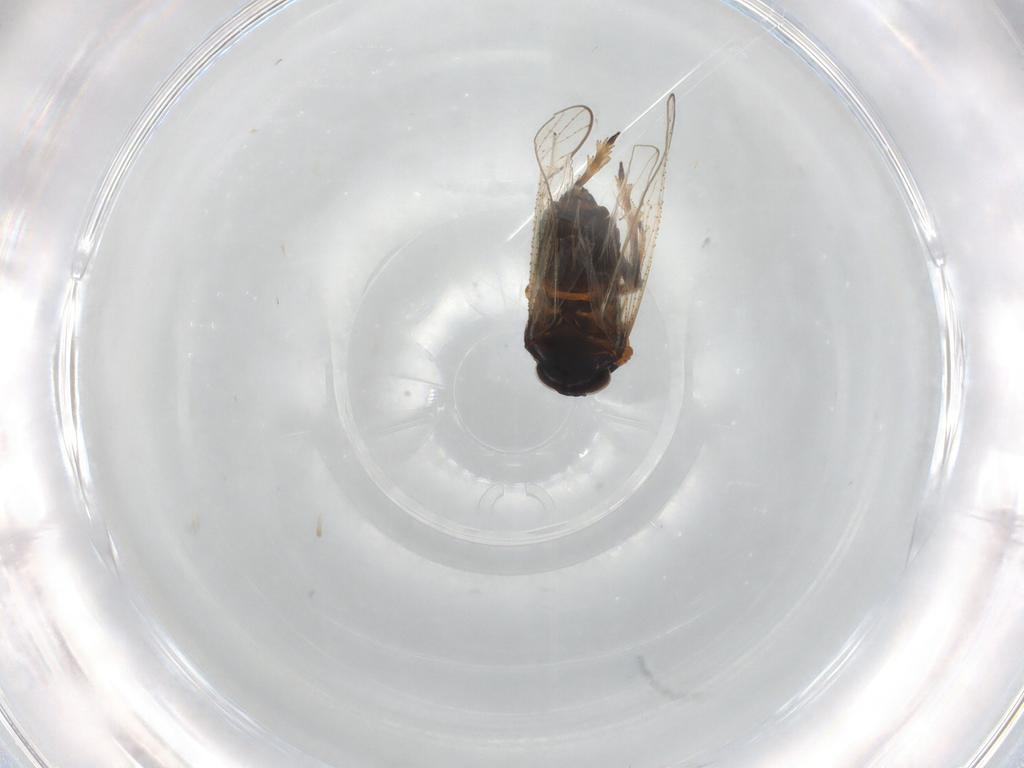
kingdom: Animalia
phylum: Arthropoda
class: Insecta
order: Hemiptera
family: Delphacidae
